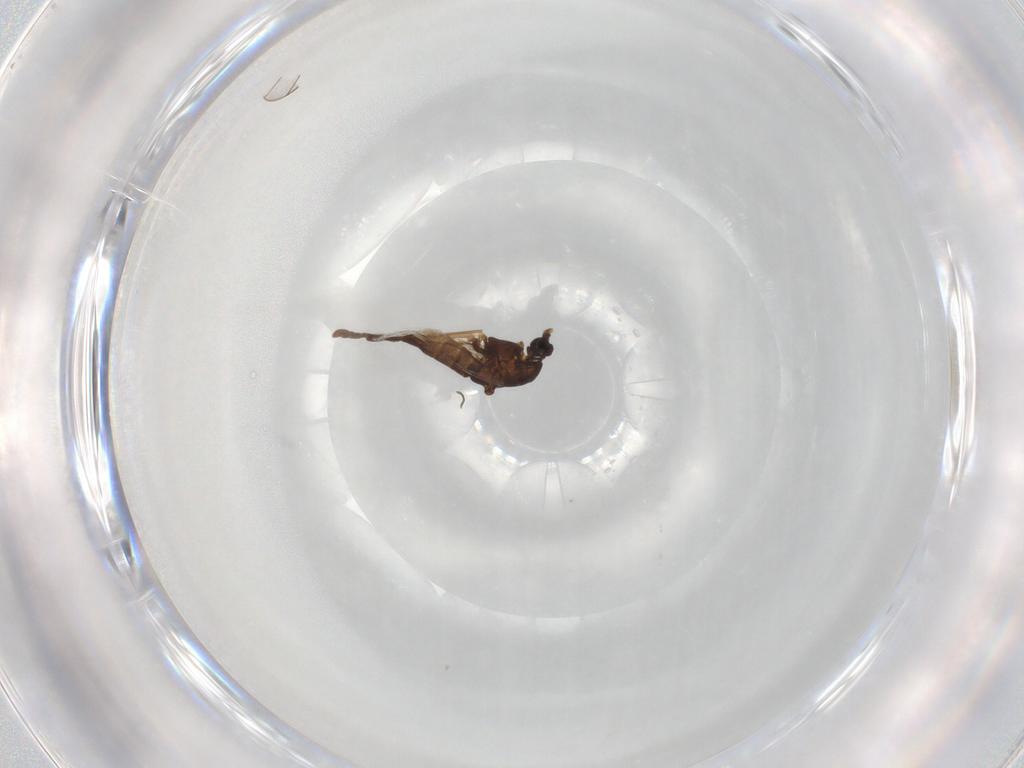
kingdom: Animalia
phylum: Arthropoda
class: Insecta
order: Diptera
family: Chironomidae
